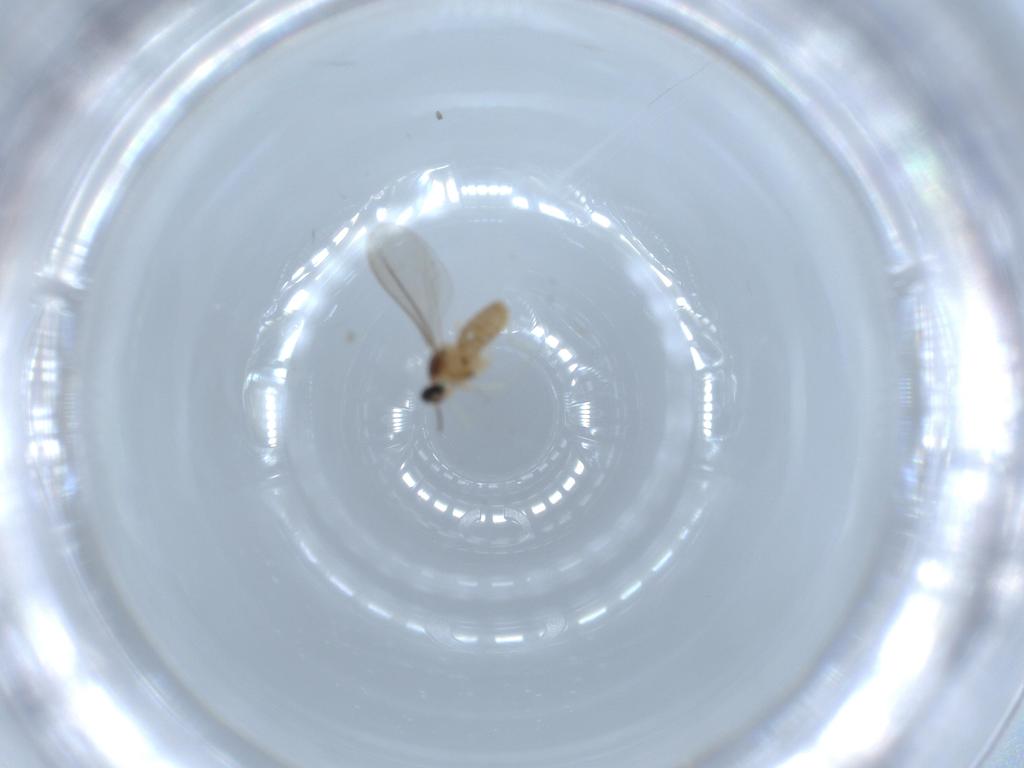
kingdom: Animalia
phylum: Arthropoda
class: Insecta
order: Diptera
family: Cecidomyiidae
